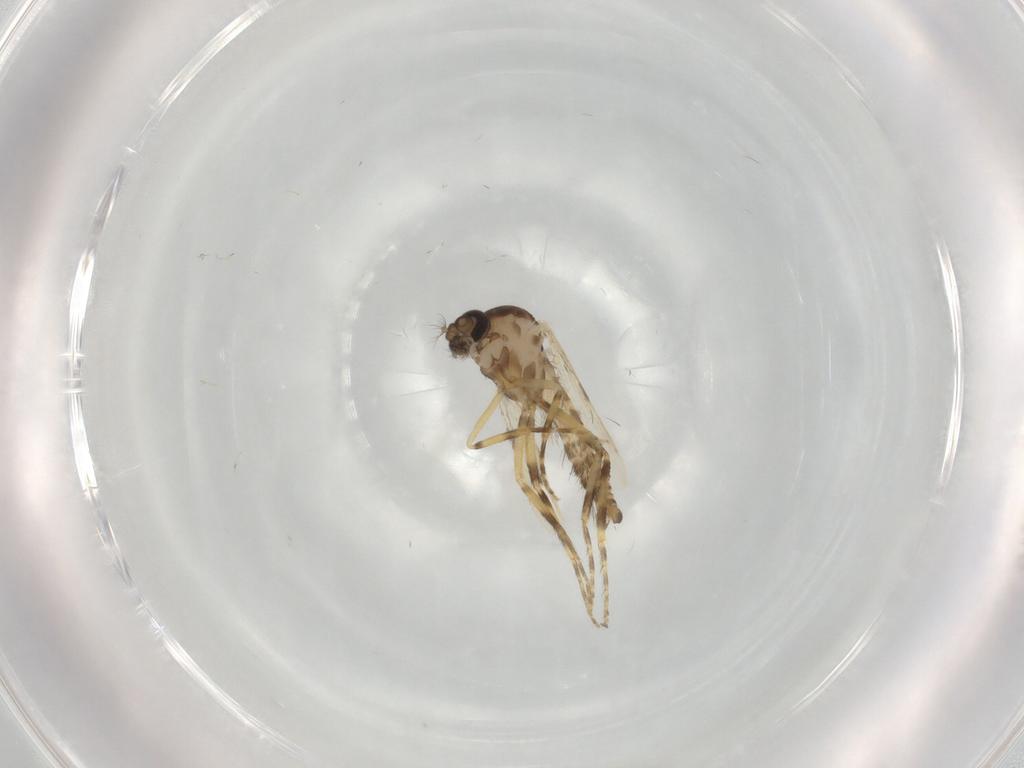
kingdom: Animalia
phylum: Arthropoda
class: Insecta
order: Diptera
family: Ceratopogonidae
